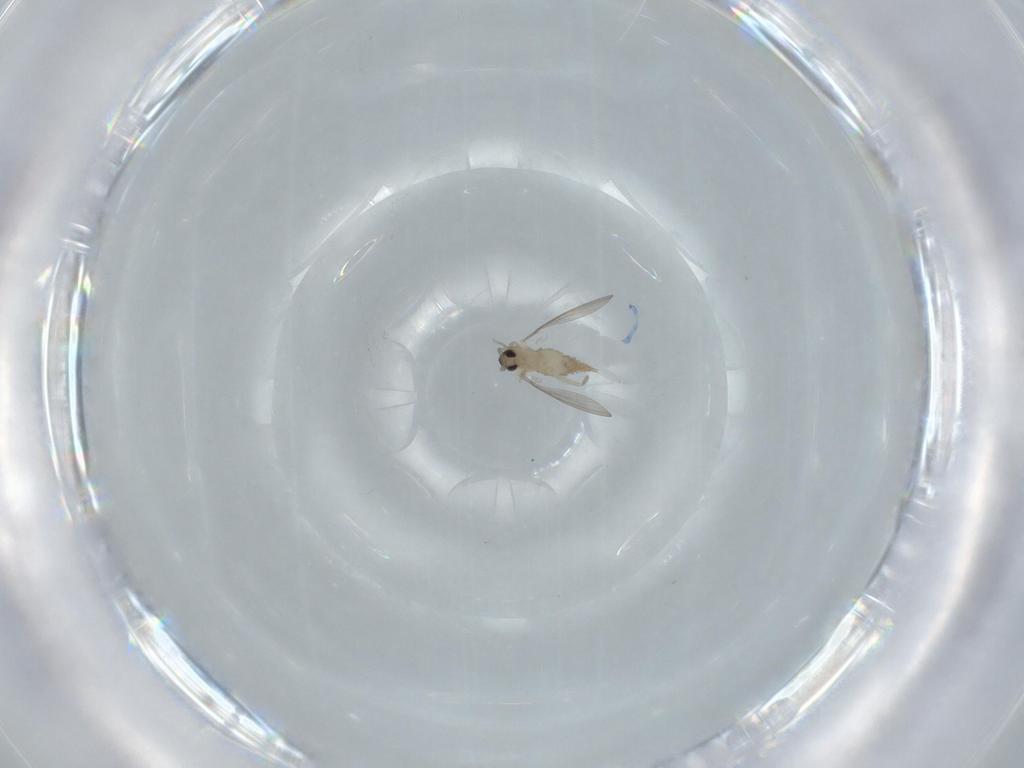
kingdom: Animalia
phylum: Arthropoda
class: Insecta
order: Diptera
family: Cecidomyiidae
